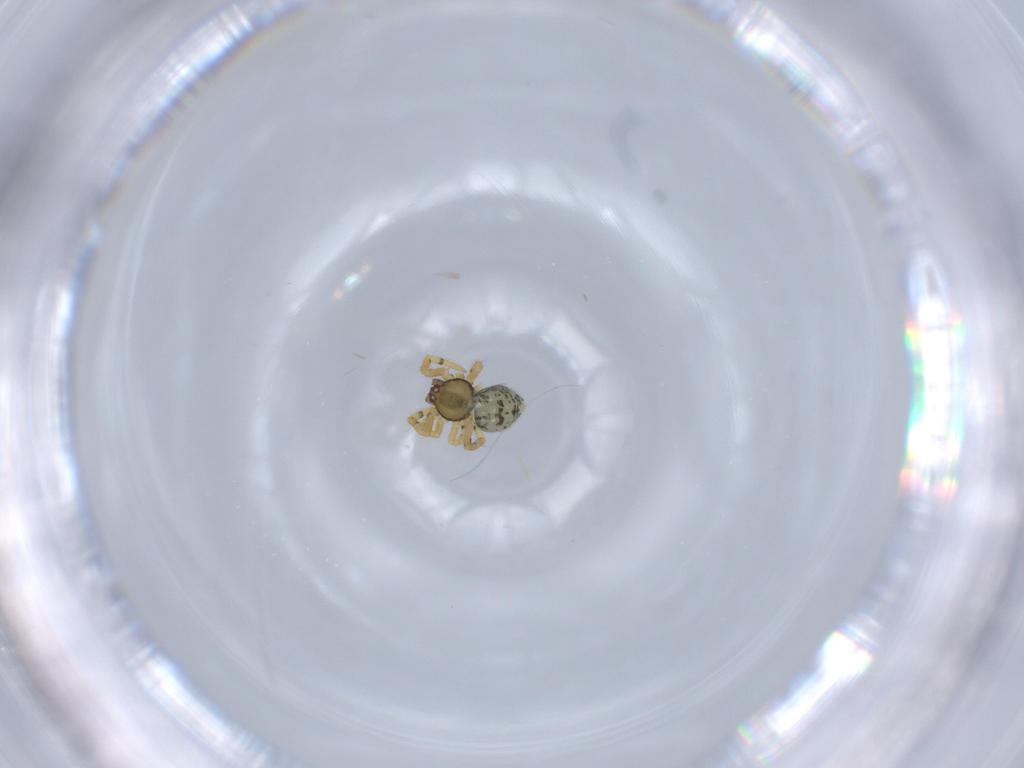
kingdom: Animalia
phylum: Arthropoda
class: Arachnida
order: Araneae
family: Theridiidae
